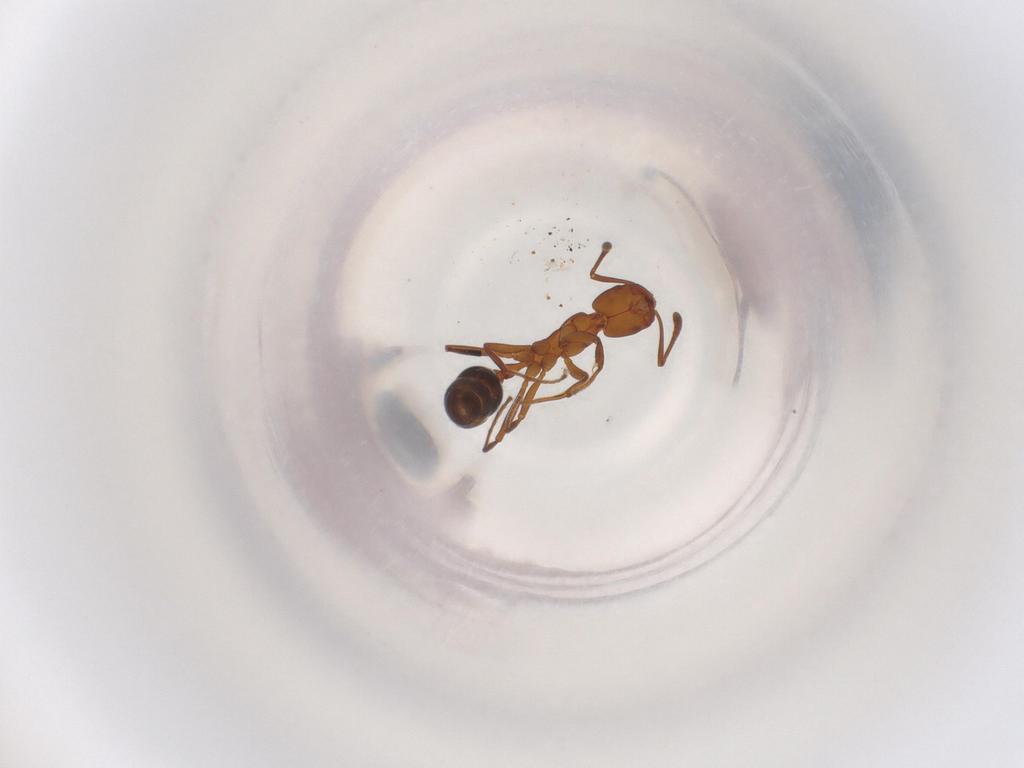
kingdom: Animalia
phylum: Arthropoda
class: Insecta
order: Hymenoptera
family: Formicidae
